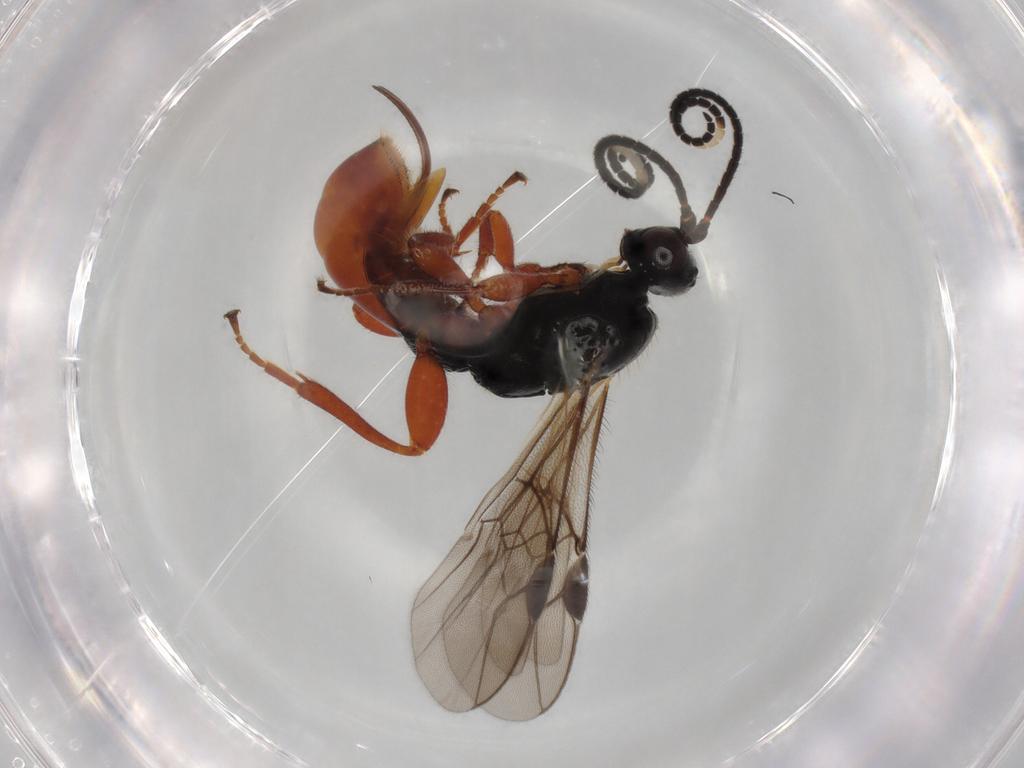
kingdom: Animalia
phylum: Arthropoda
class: Insecta
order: Hymenoptera
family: Braconidae
